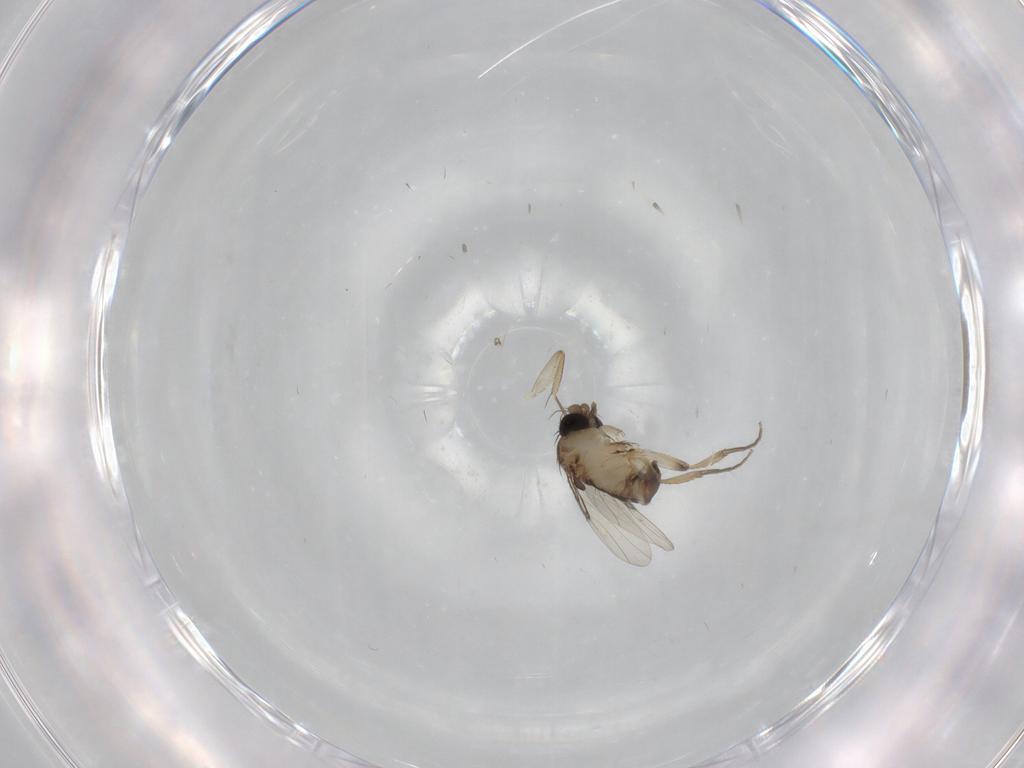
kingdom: Animalia
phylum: Arthropoda
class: Insecta
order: Diptera
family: Phoridae
